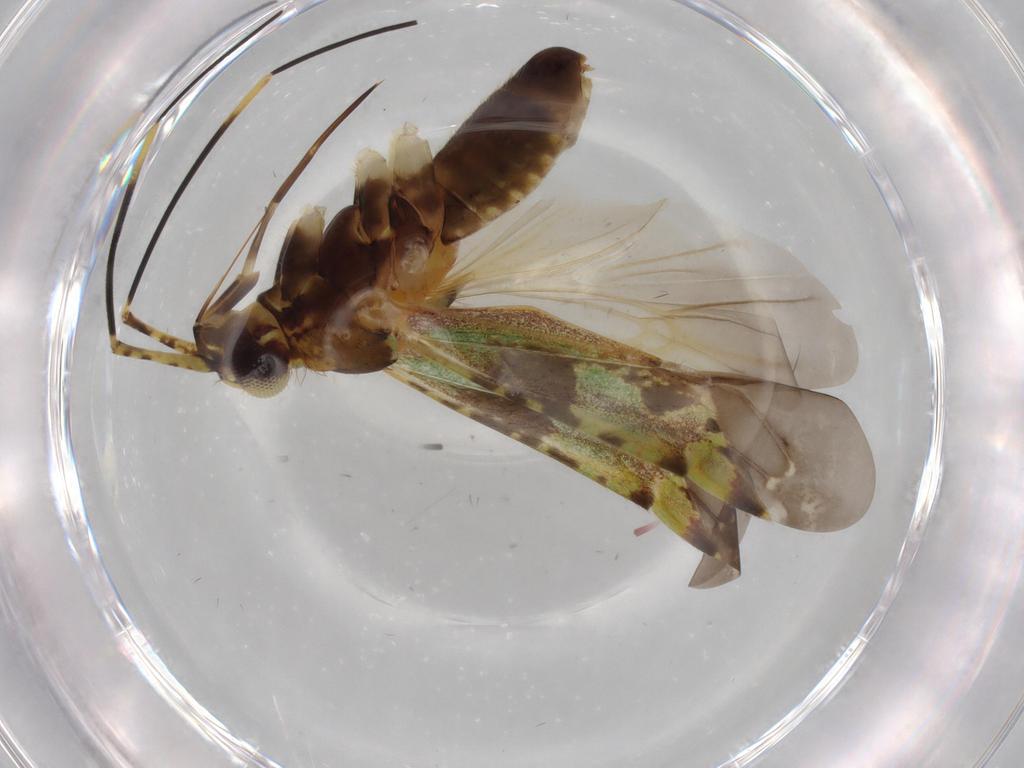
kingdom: Animalia
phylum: Arthropoda
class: Insecta
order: Hemiptera
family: Miridae
